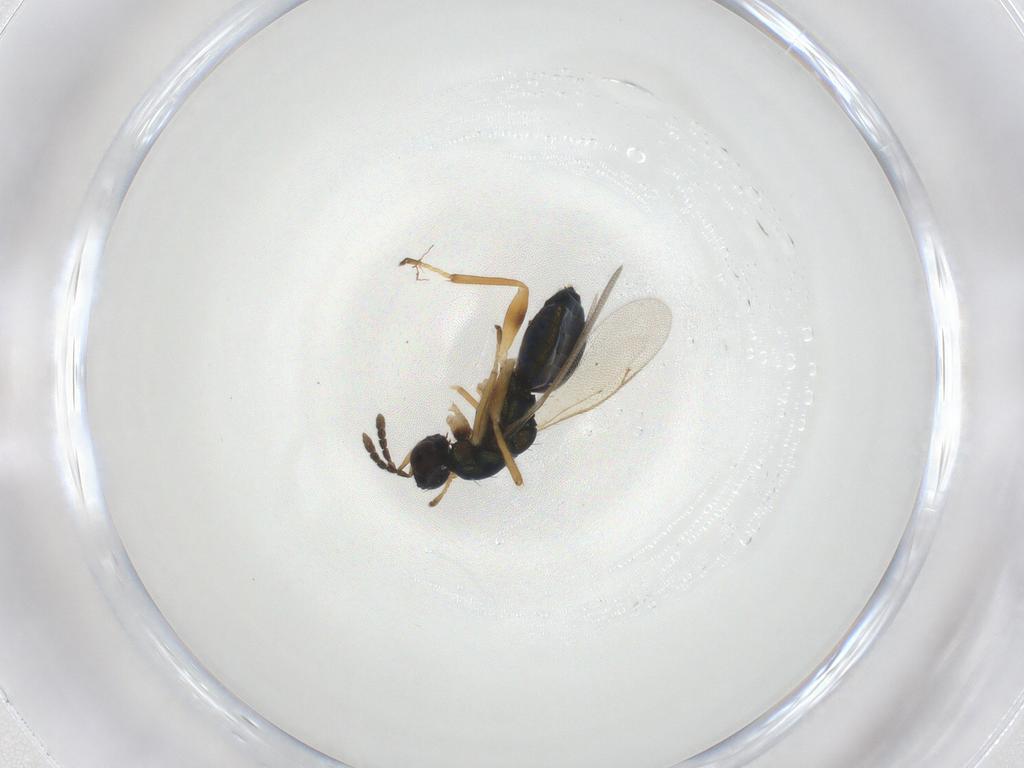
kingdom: Animalia
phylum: Arthropoda
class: Insecta
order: Hymenoptera
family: Eulophidae
